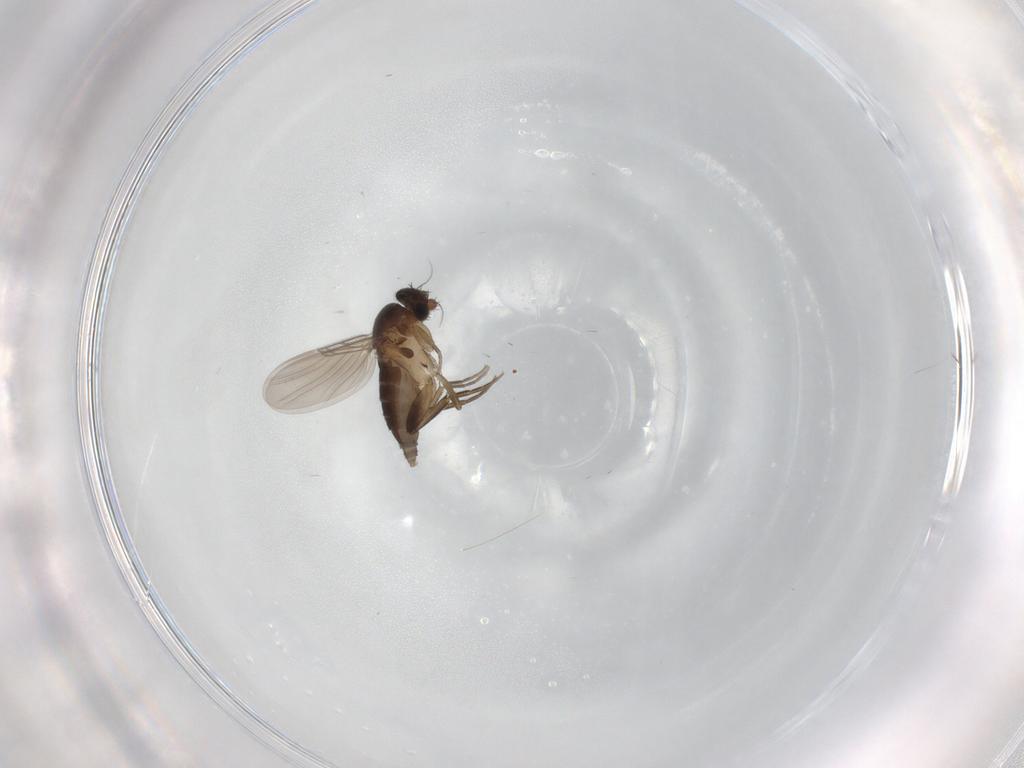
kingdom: Animalia
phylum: Arthropoda
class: Insecta
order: Diptera
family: Phoridae
